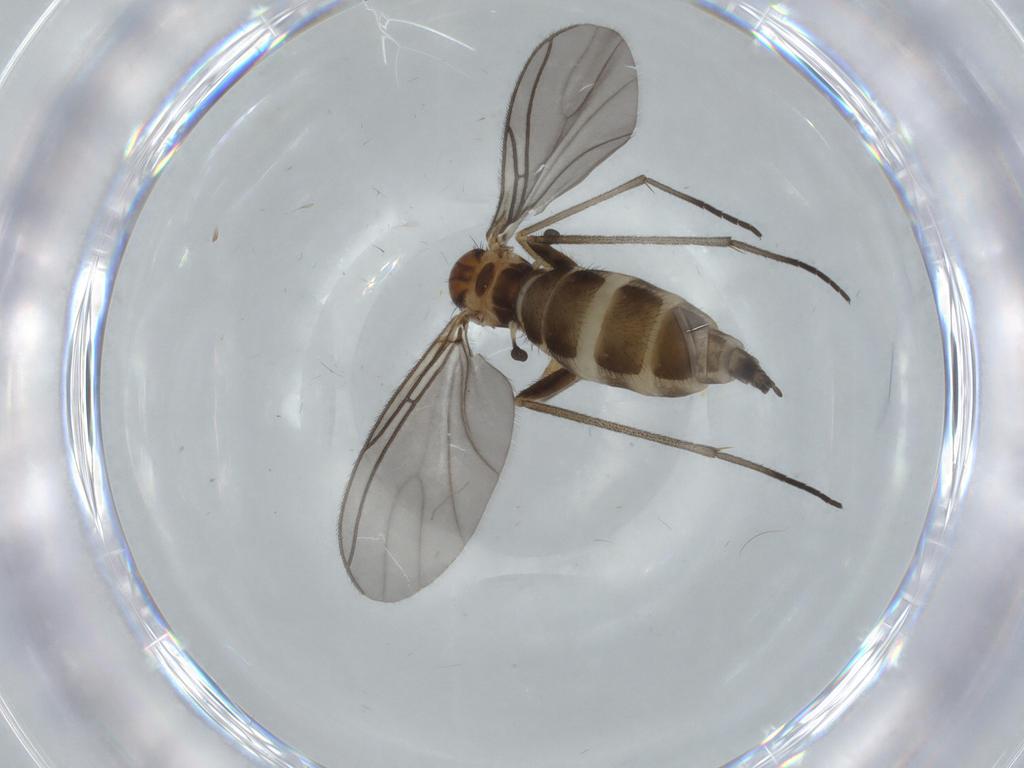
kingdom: Animalia
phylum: Arthropoda
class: Insecta
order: Diptera
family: Sciaridae
